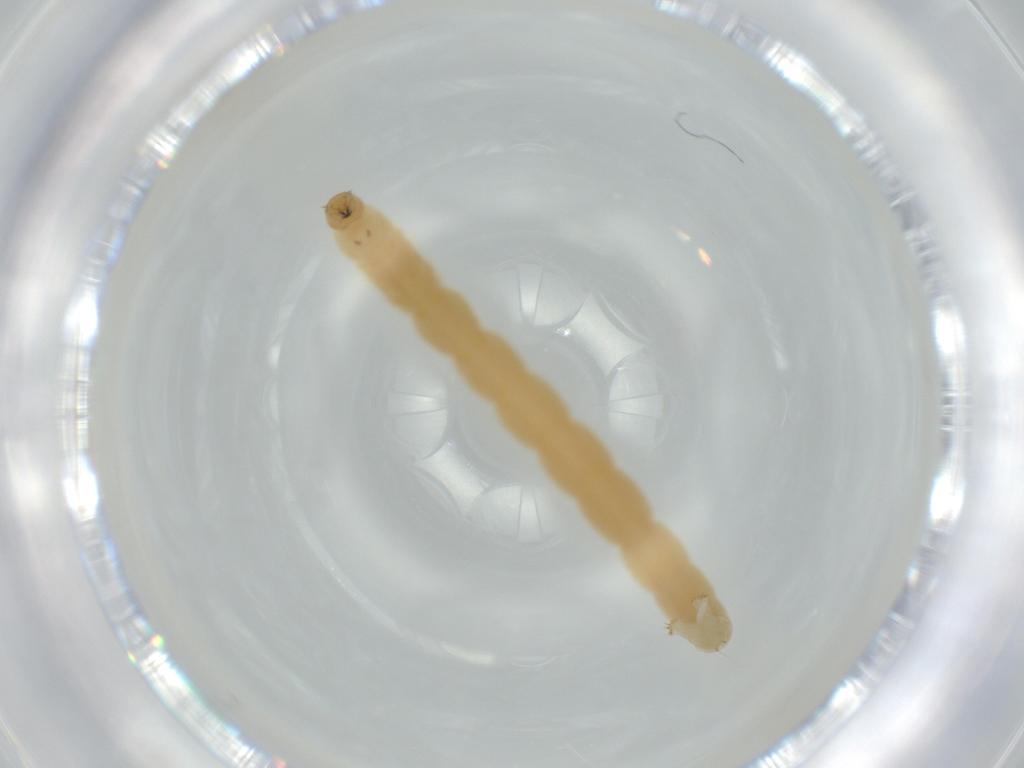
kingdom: Animalia
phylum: Arthropoda
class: Insecta
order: Diptera
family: Chironomidae
